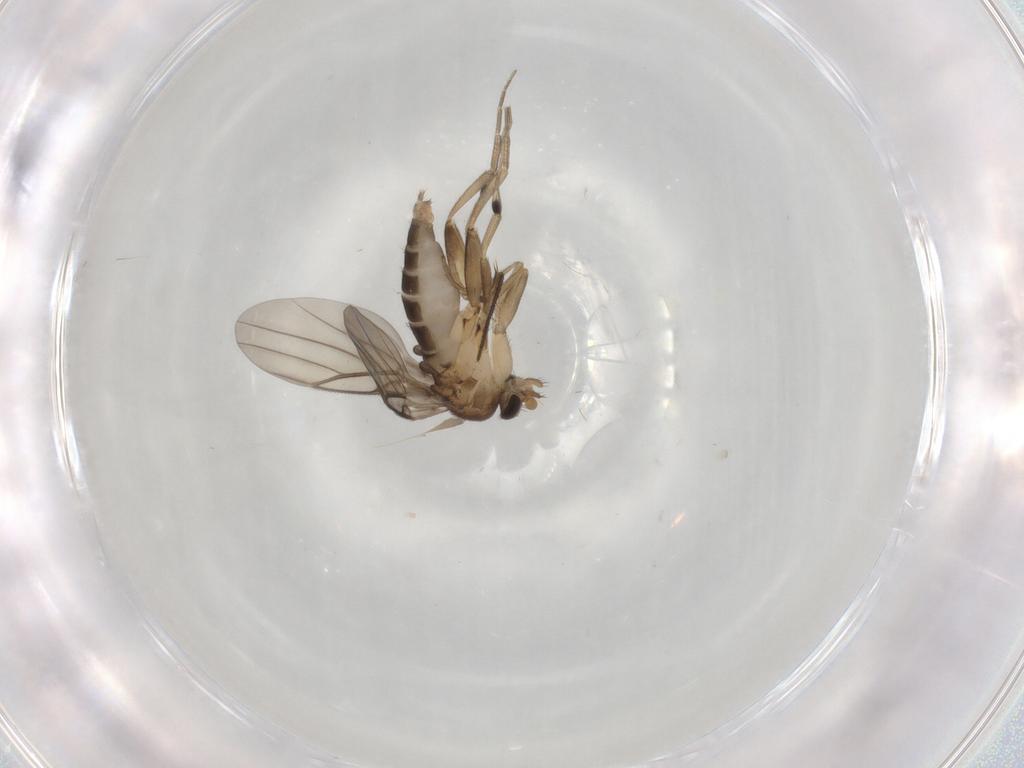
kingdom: Animalia
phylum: Arthropoda
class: Insecta
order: Diptera
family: Phoridae
